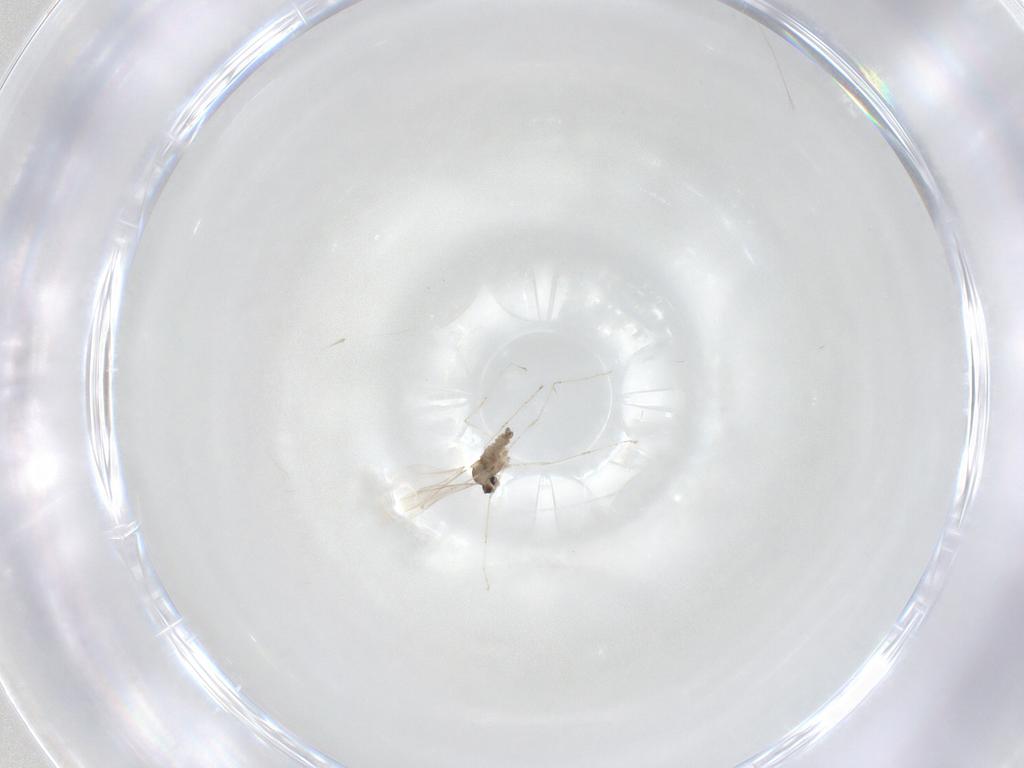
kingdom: Animalia
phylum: Arthropoda
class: Insecta
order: Diptera
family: Cecidomyiidae
